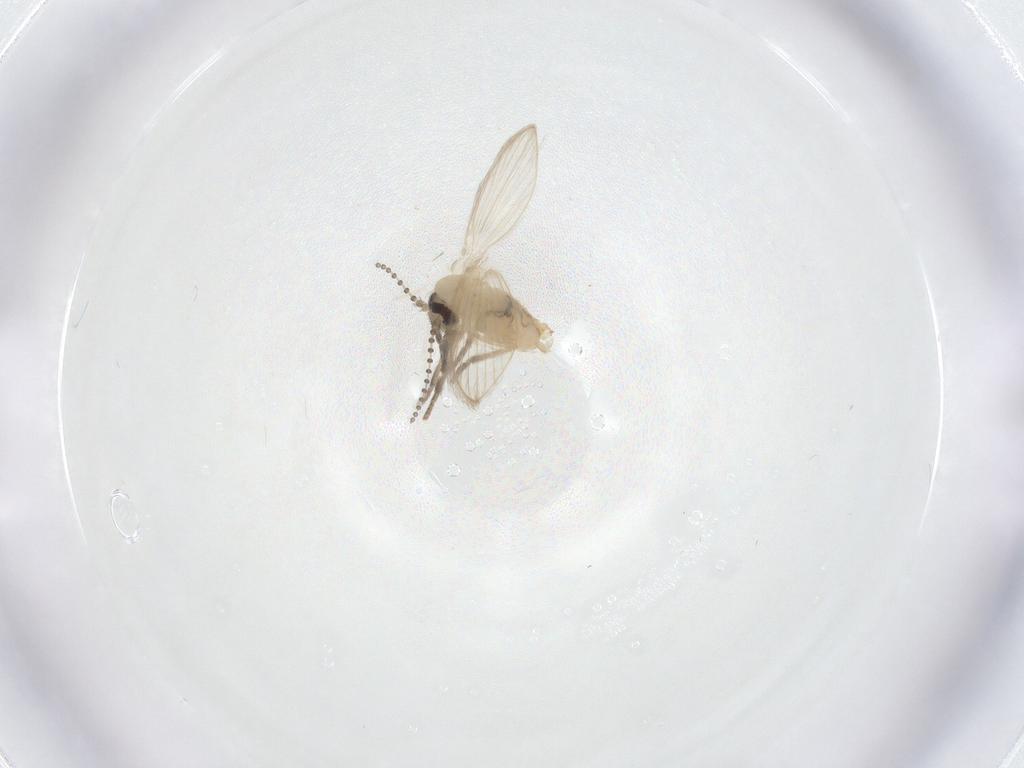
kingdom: Animalia
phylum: Arthropoda
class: Insecta
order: Diptera
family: Psychodidae
